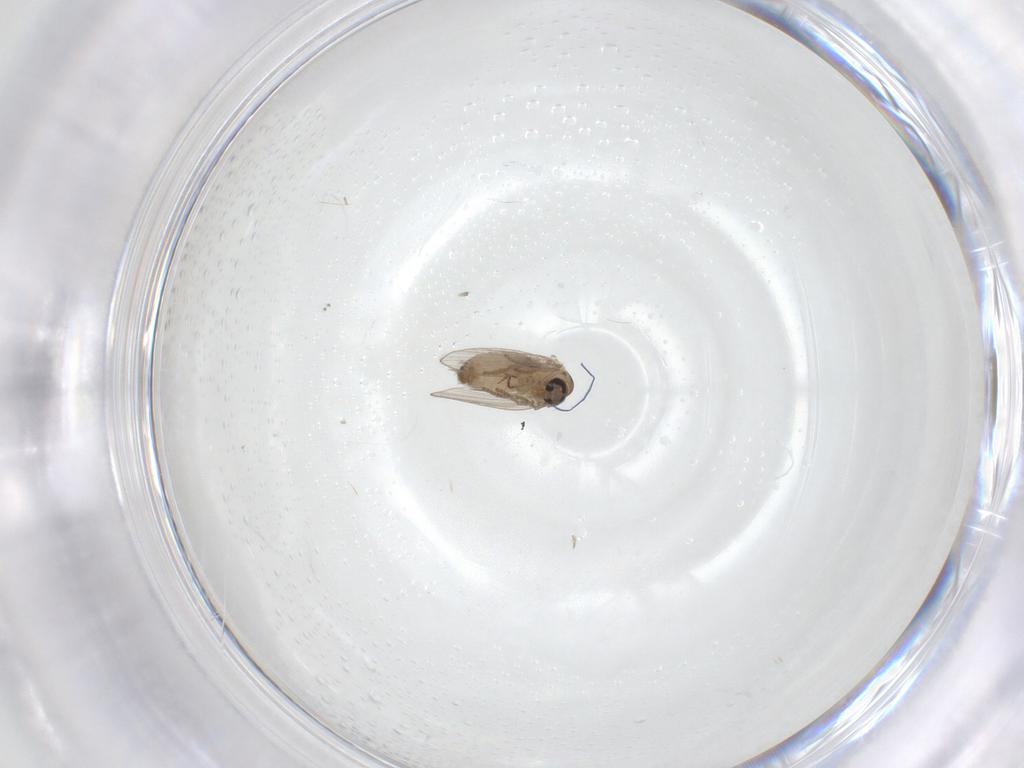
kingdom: Animalia
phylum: Arthropoda
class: Insecta
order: Diptera
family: Psychodidae
